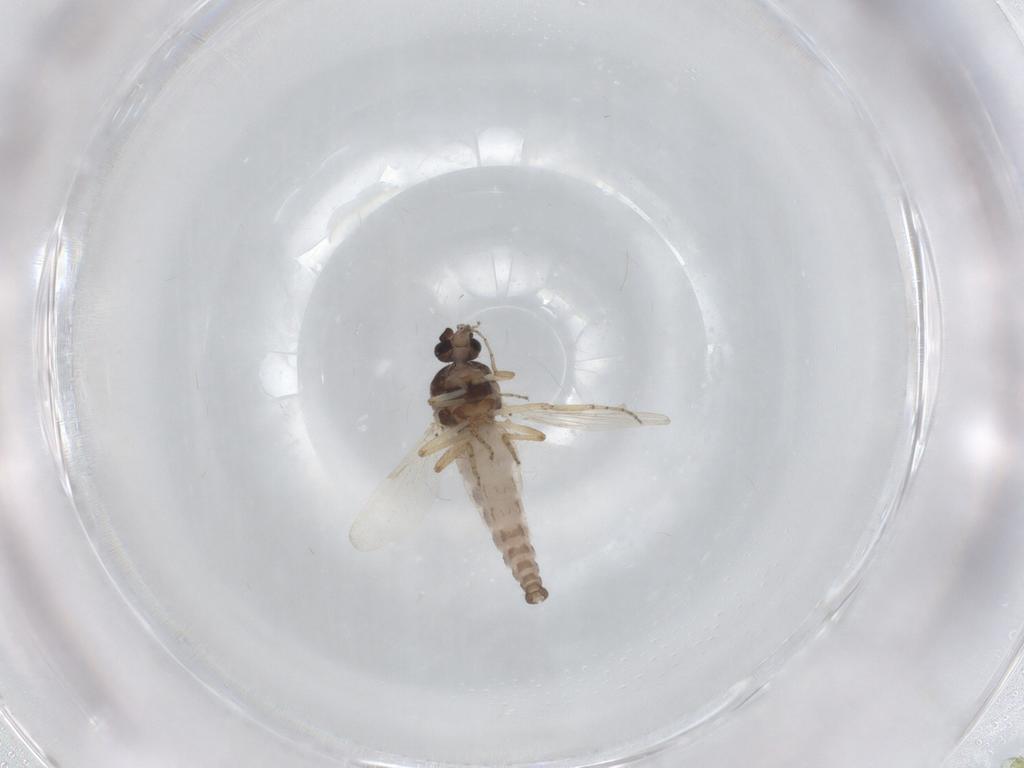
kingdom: Animalia
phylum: Arthropoda
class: Insecta
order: Diptera
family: Ceratopogonidae
